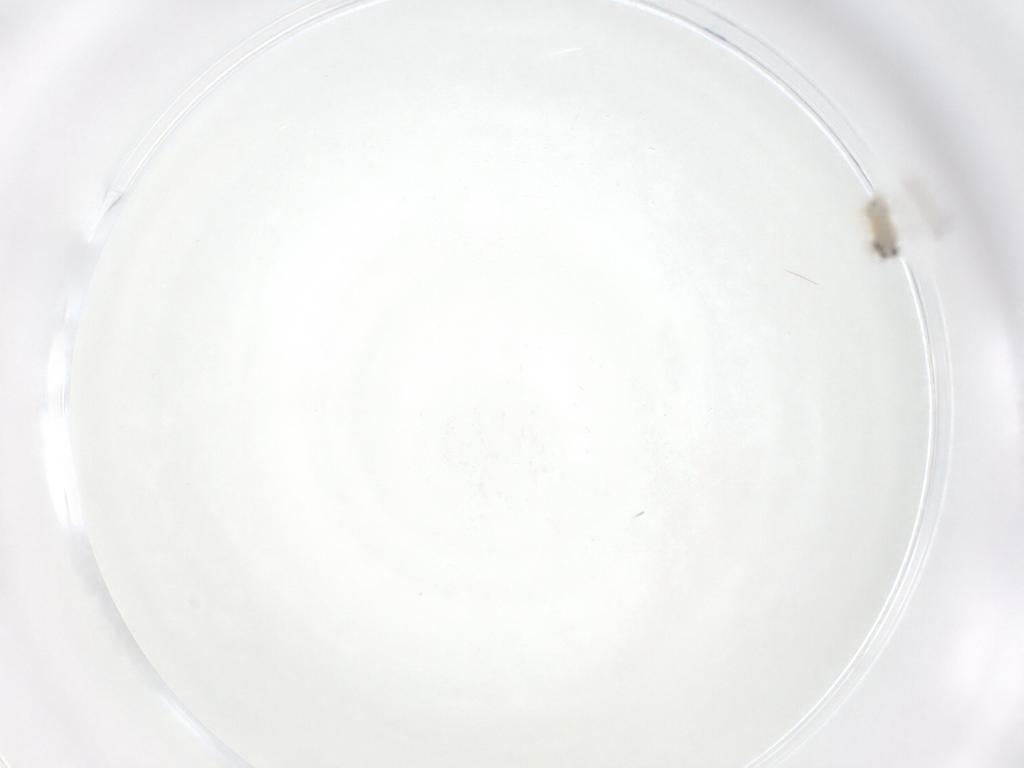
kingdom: Animalia
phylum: Arthropoda
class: Insecta
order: Hymenoptera
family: Aphelinidae
